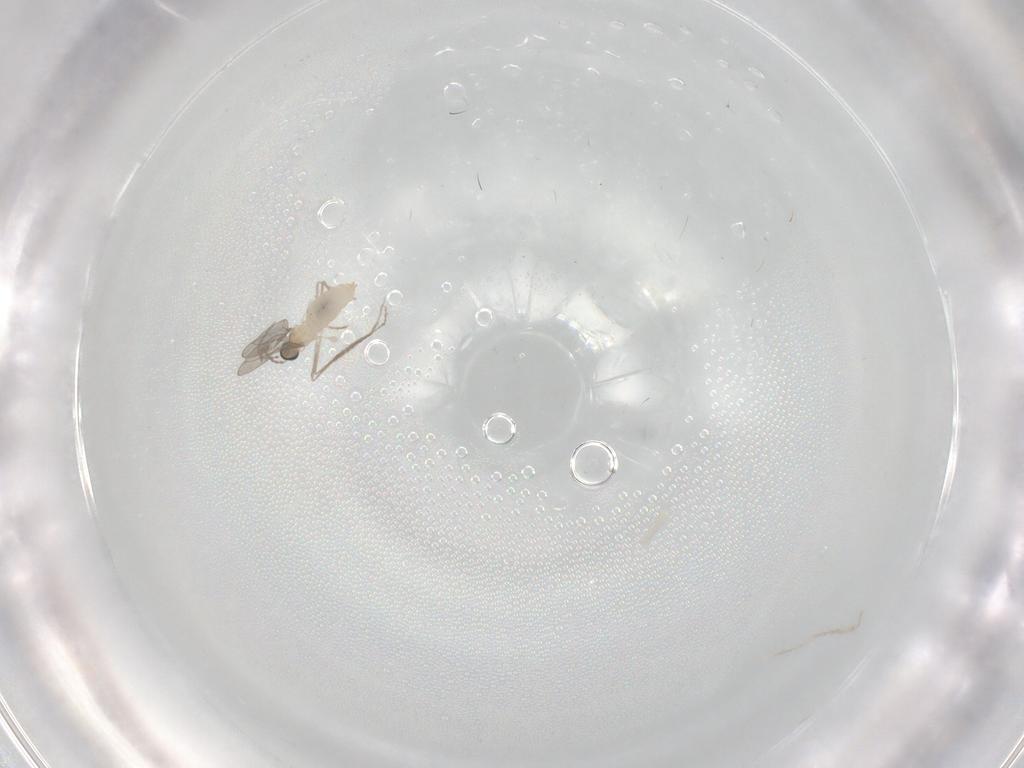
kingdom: Animalia
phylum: Arthropoda
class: Insecta
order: Diptera
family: Cecidomyiidae
